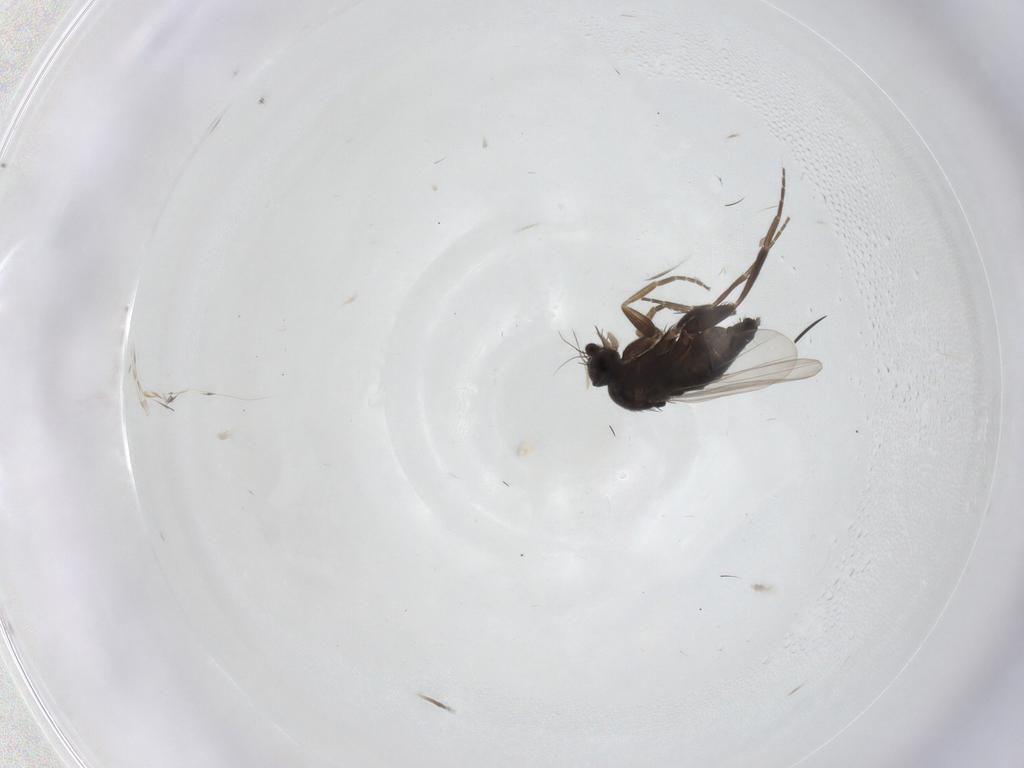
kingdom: Animalia
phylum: Arthropoda
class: Insecta
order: Diptera
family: Phoridae
